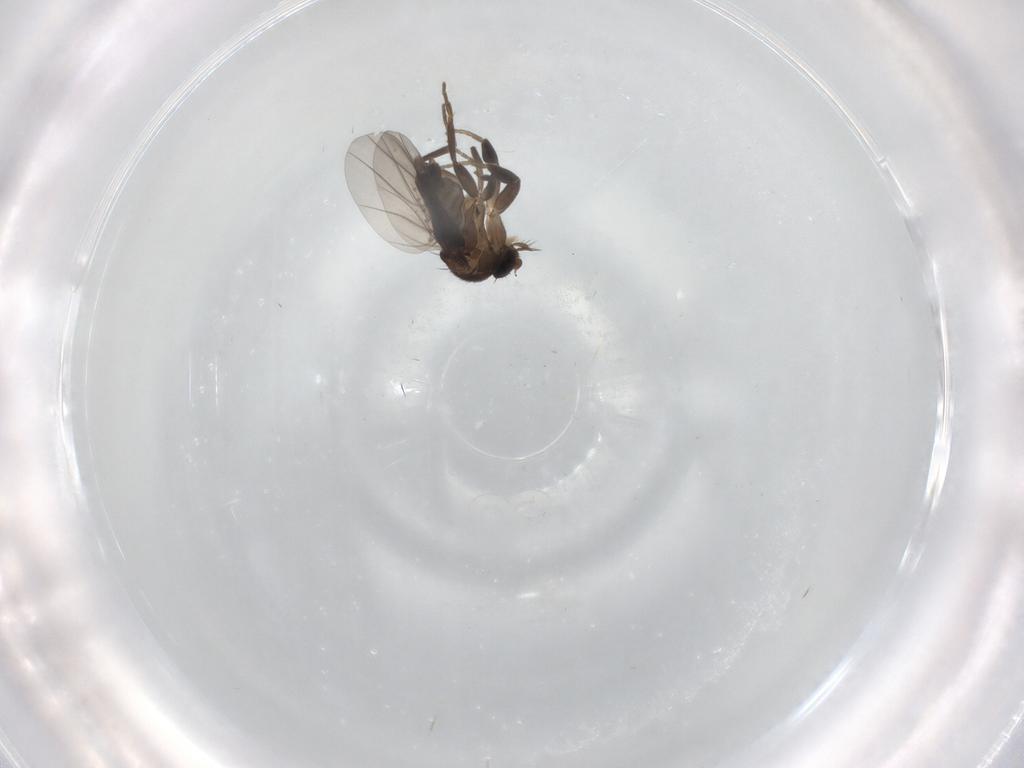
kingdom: Animalia
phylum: Arthropoda
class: Insecta
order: Diptera
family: Phoridae
